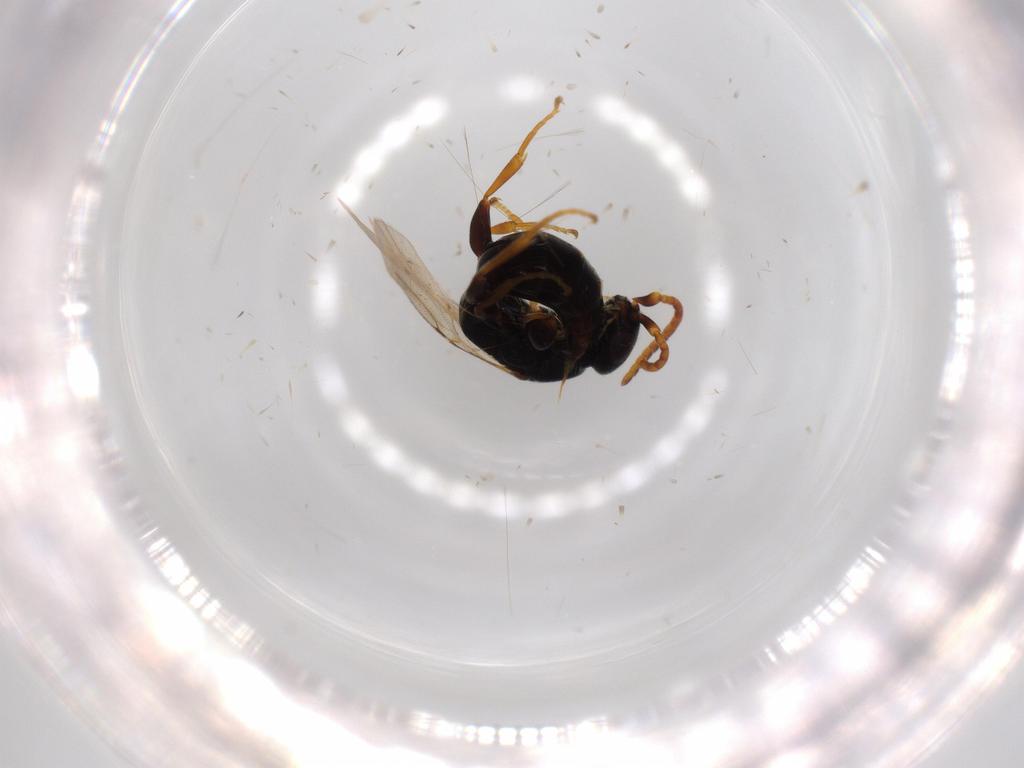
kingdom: Animalia
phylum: Arthropoda
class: Insecta
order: Hymenoptera
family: Bethylidae
